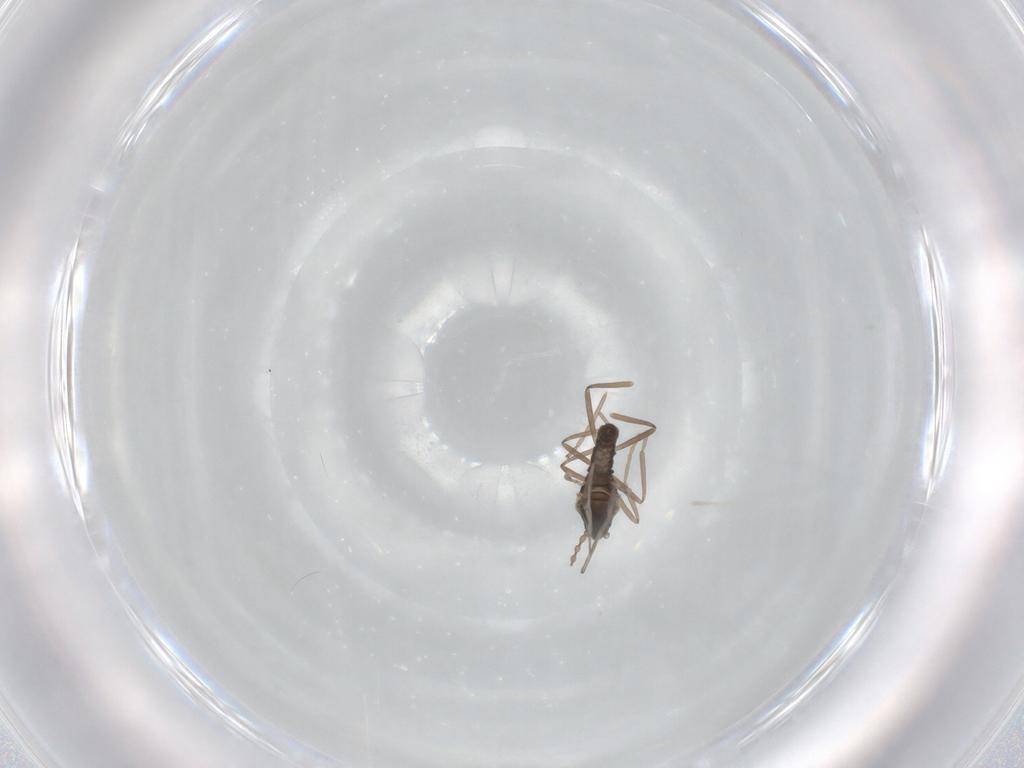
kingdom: Animalia
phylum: Arthropoda
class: Insecta
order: Diptera
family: Cecidomyiidae
